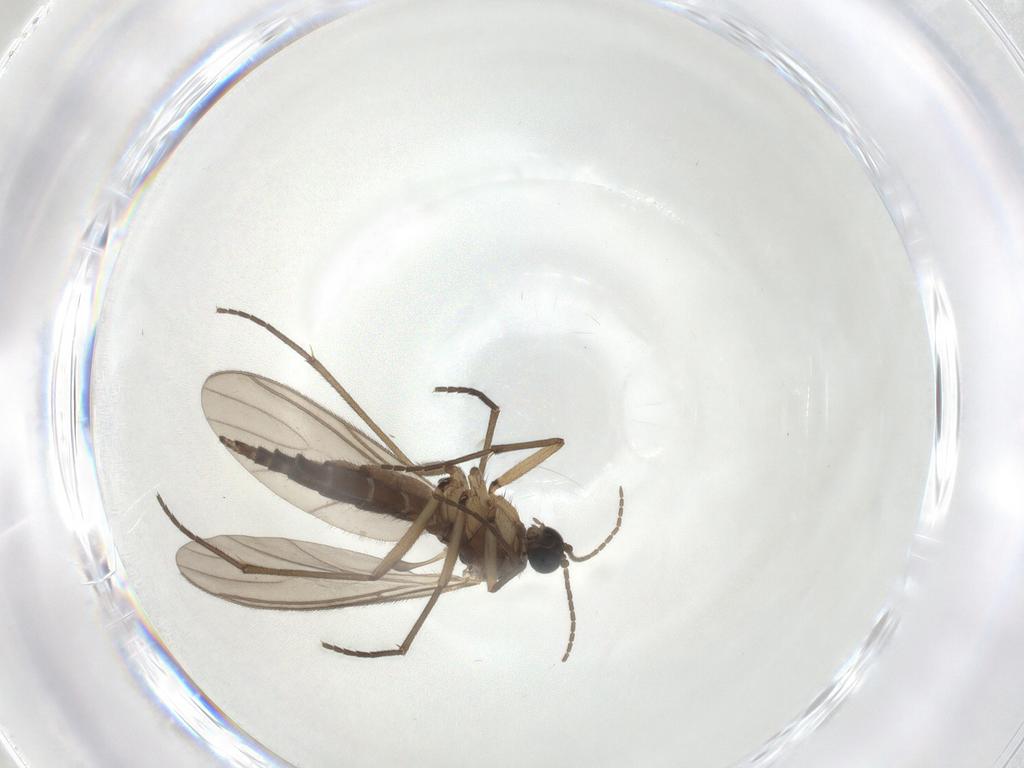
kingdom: Animalia
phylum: Arthropoda
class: Insecta
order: Diptera
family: Sciaridae
